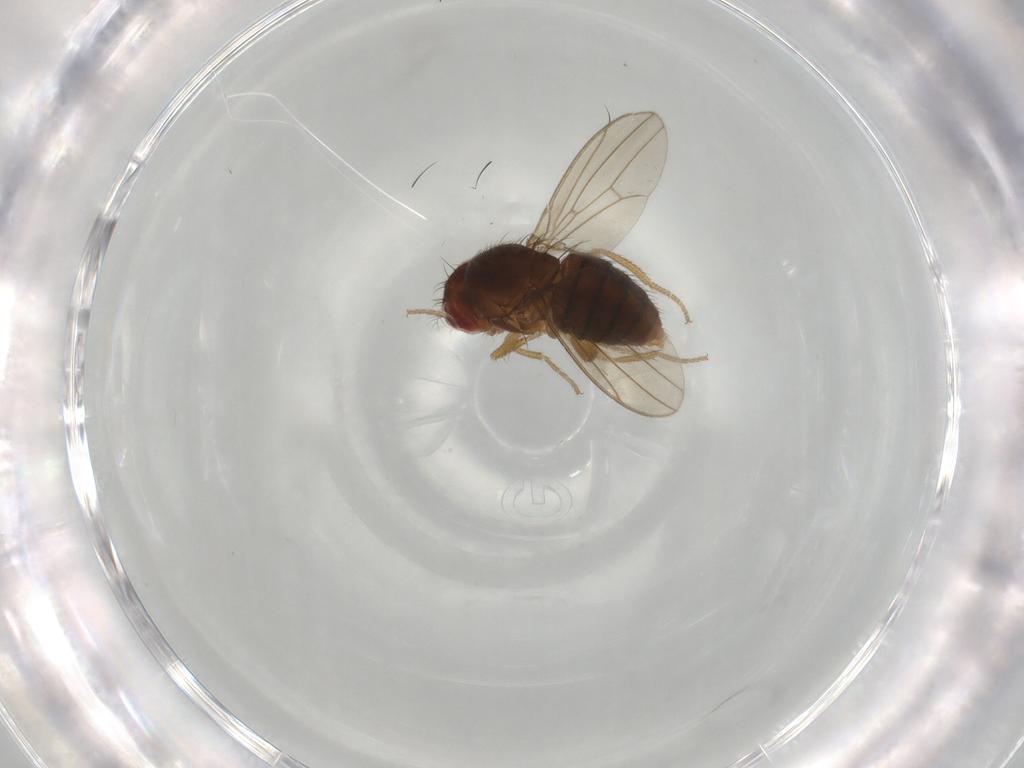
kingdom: Animalia
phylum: Arthropoda
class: Insecta
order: Diptera
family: Drosophilidae
